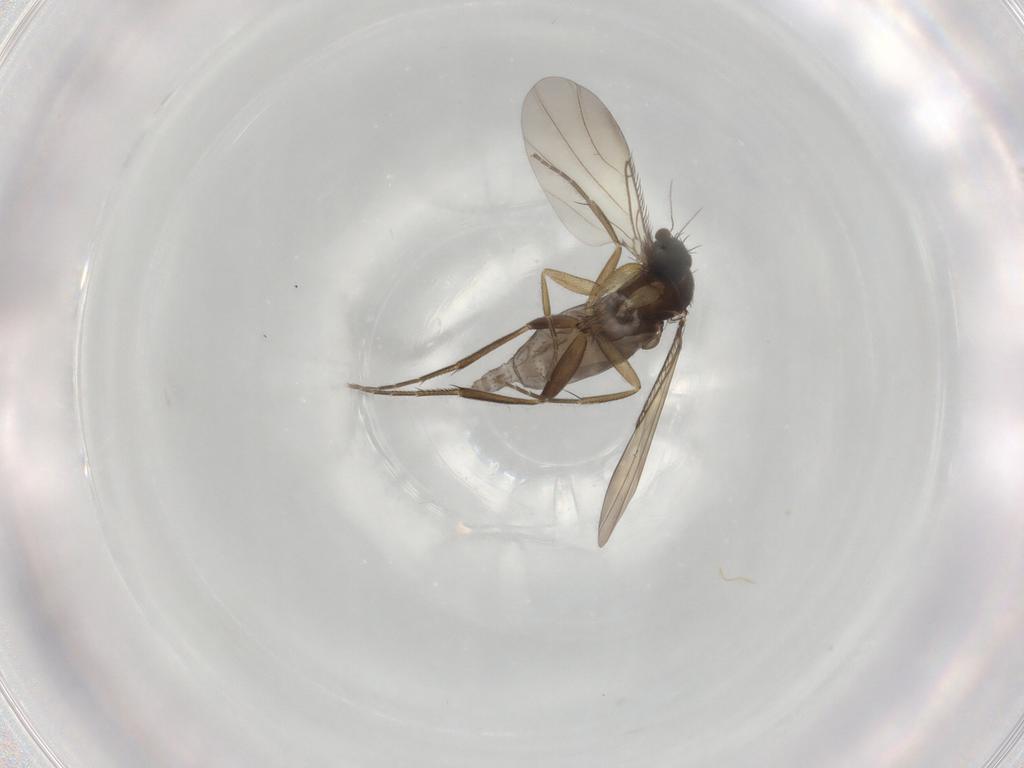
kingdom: Animalia
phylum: Arthropoda
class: Insecta
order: Diptera
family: Phoridae
